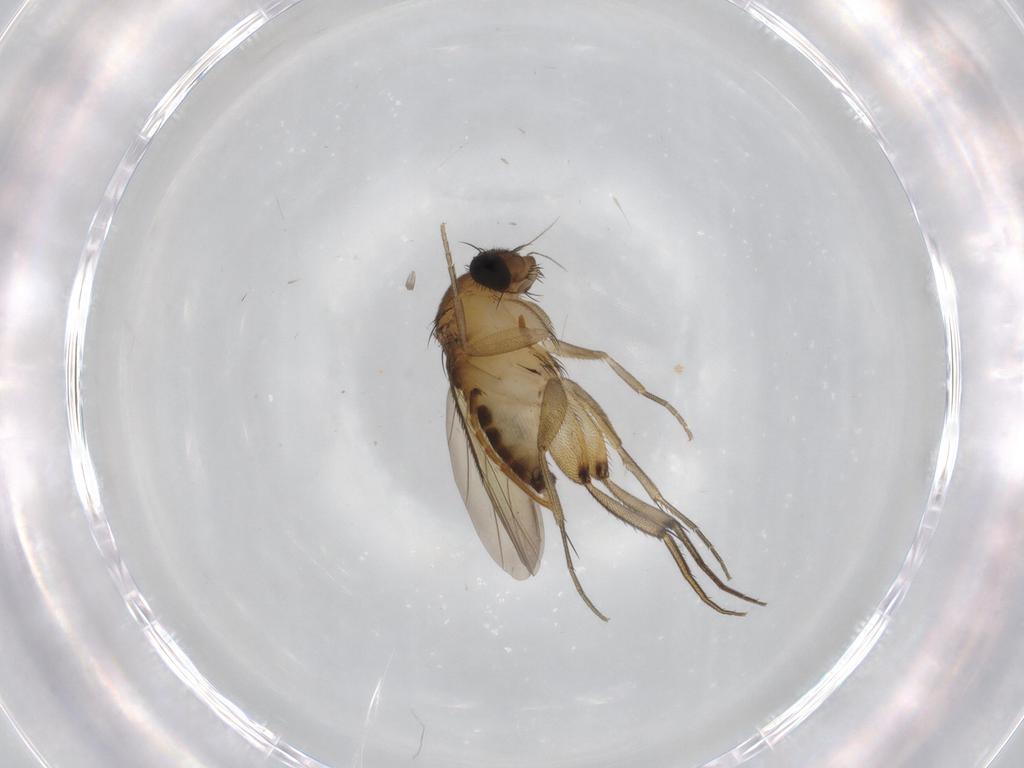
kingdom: Animalia
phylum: Arthropoda
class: Insecta
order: Diptera
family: Phoridae
